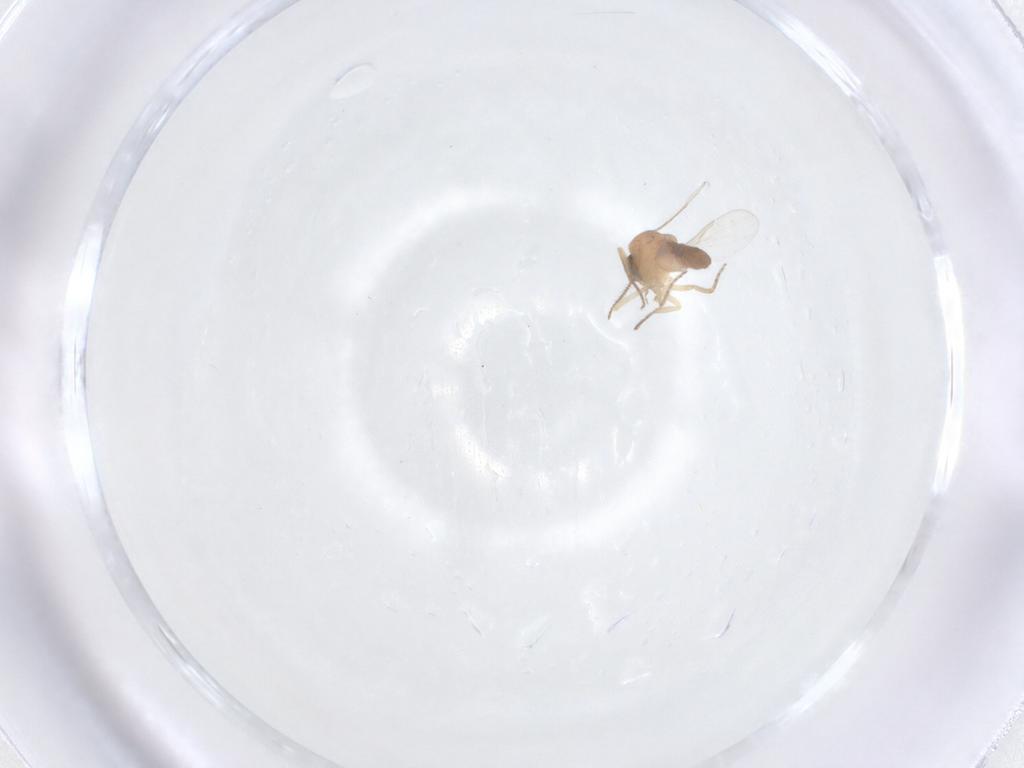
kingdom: Animalia
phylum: Arthropoda
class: Insecta
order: Diptera
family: Ceratopogonidae
